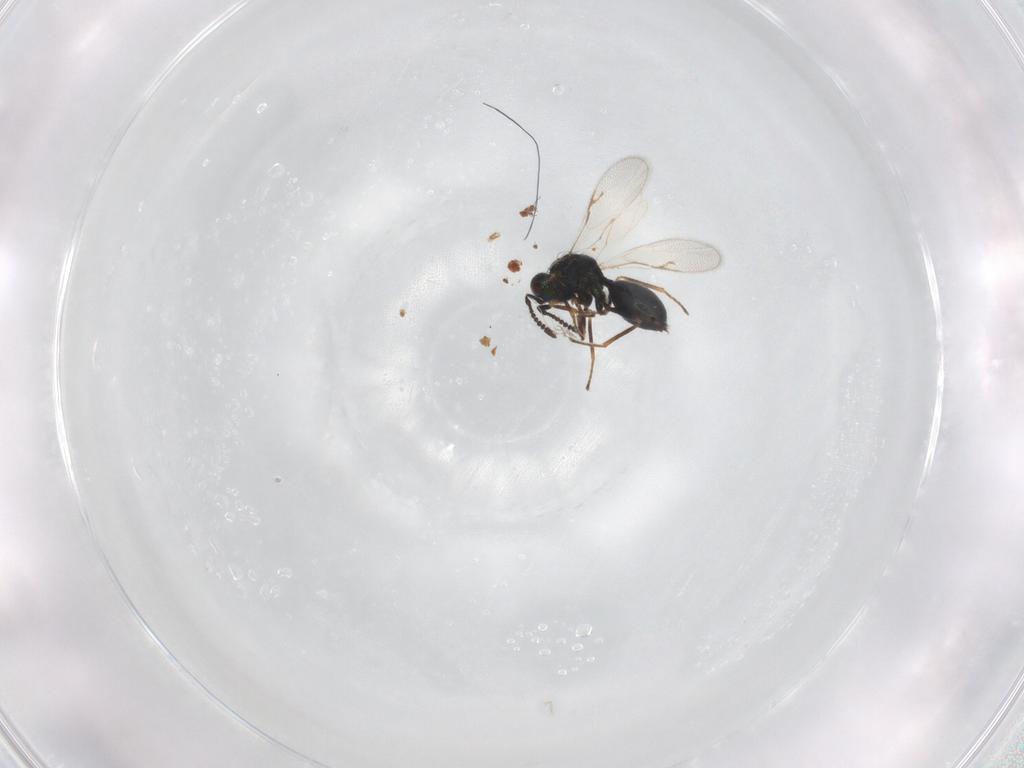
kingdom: Animalia
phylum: Arthropoda
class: Insecta
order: Hymenoptera
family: Chalcidoidea_incertae_sedis
